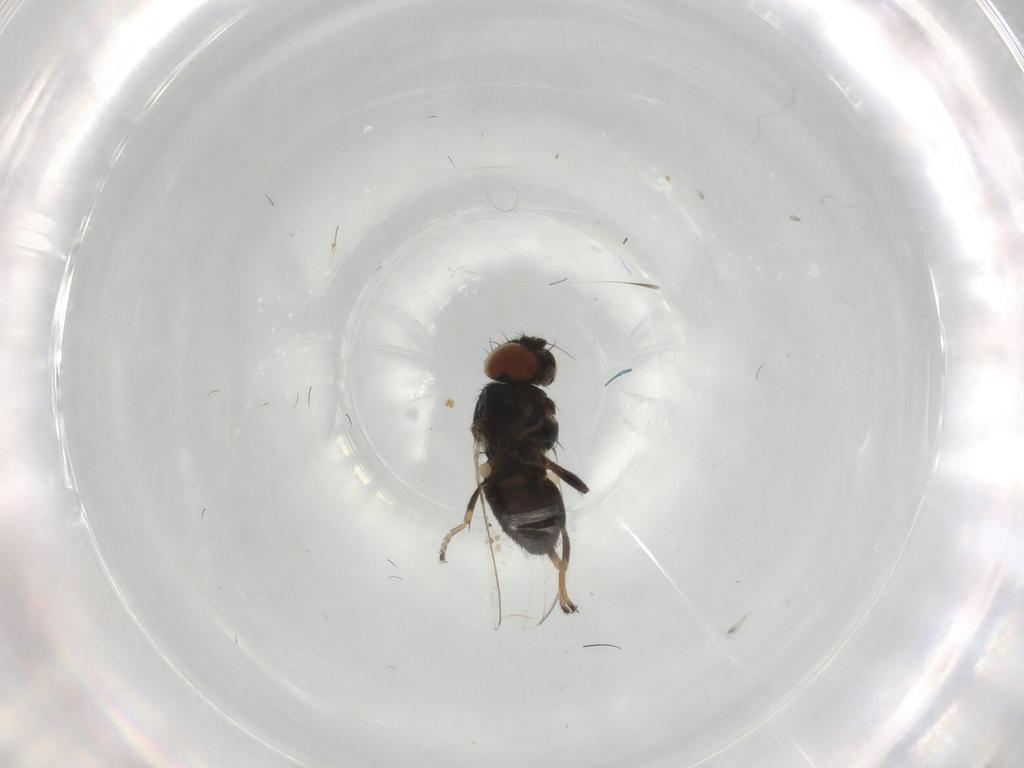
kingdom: Animalia
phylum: Arthropoda
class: Insecta
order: Diptera
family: Milichiidae
